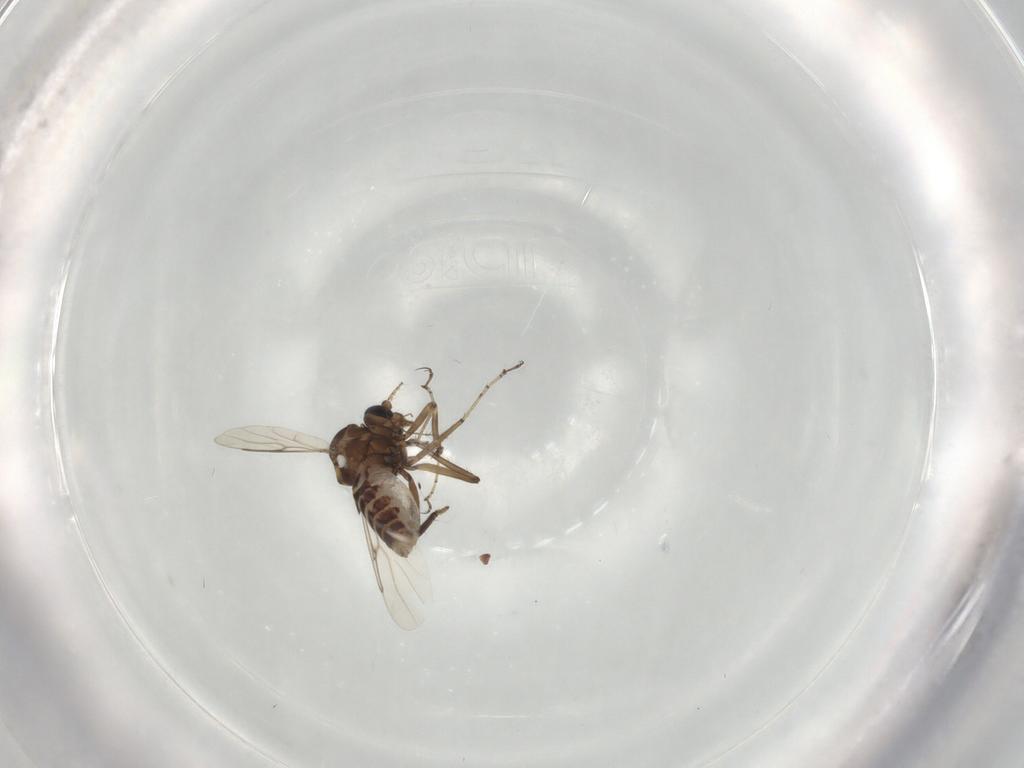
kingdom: Animalia
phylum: Arthropoda
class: Insecta
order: Diptera
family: Ceratopogonidae
